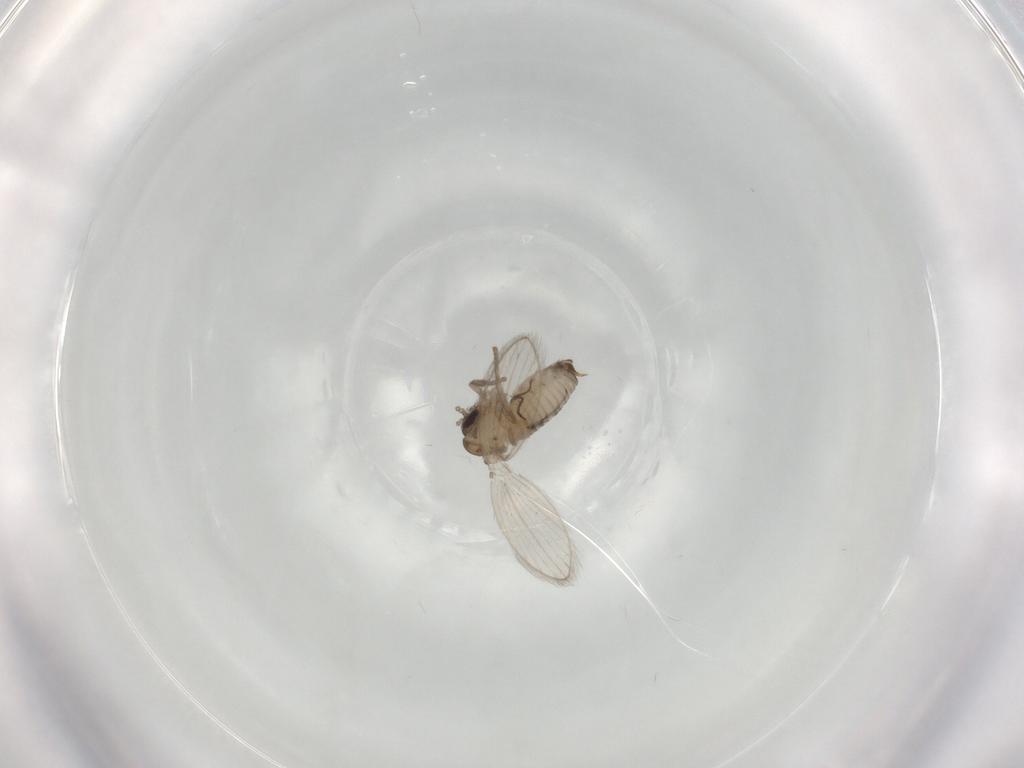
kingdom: Animalia
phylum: Arthropoda
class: Insecta
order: Diptera
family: Psychodidae
